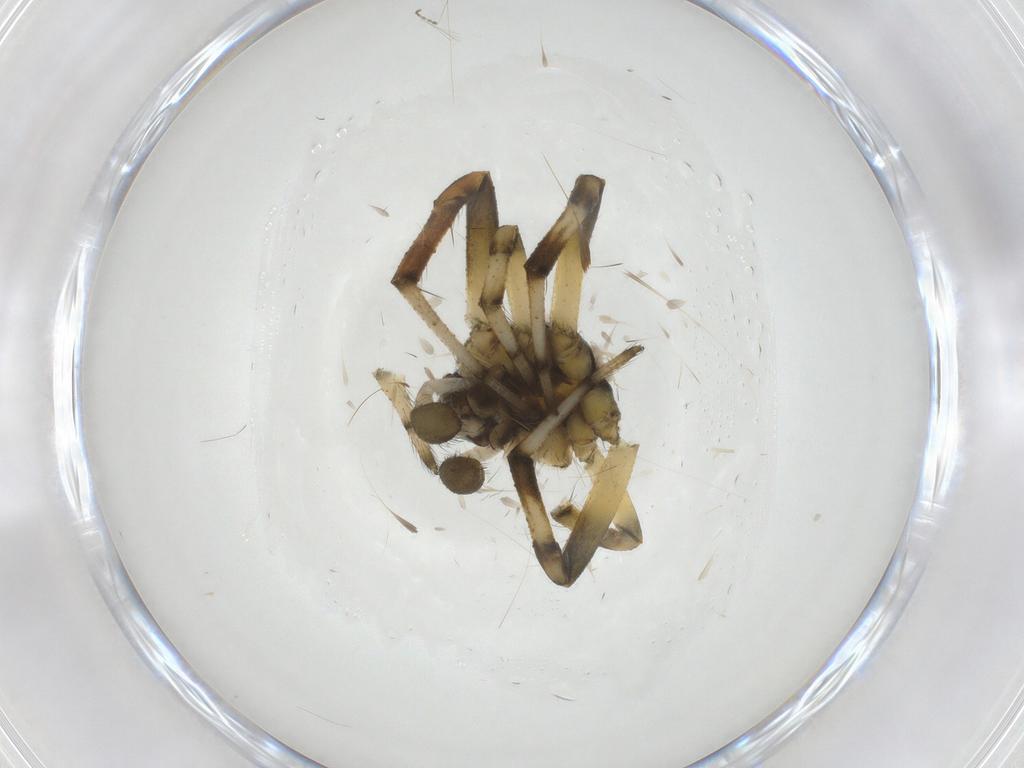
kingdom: Animalia
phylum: Arthropoda
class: Arachnida
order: Araneae
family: Araneidae
